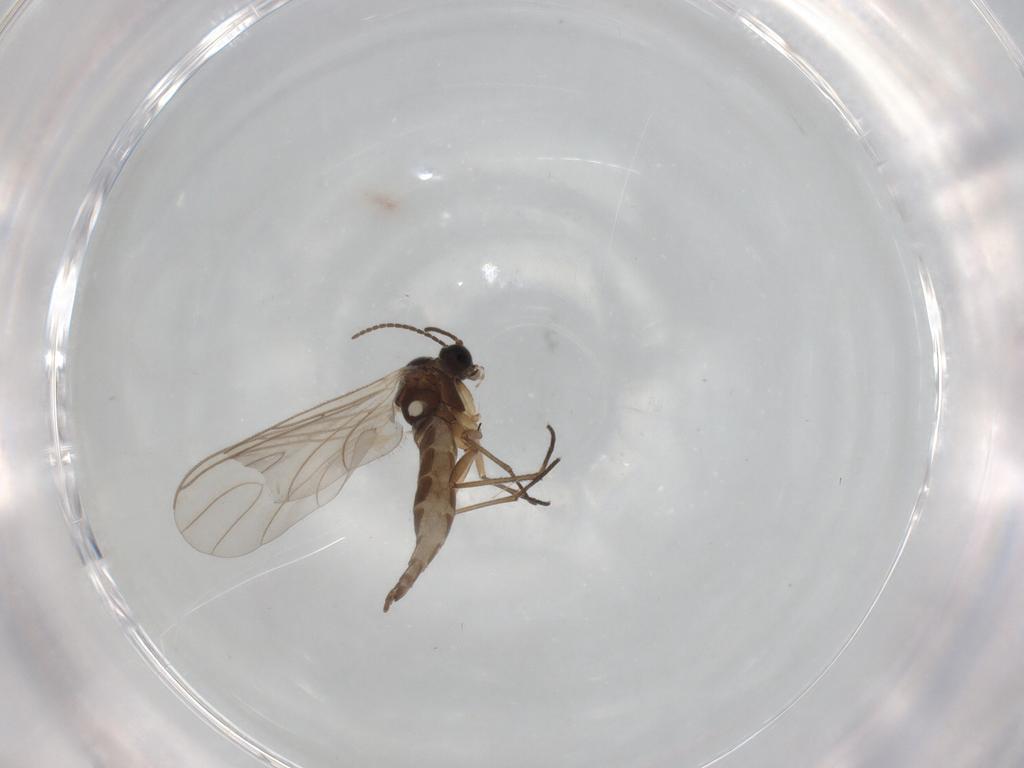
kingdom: Animalia
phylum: Arthropoda
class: Insecta
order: Diptera
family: Sciaridae
